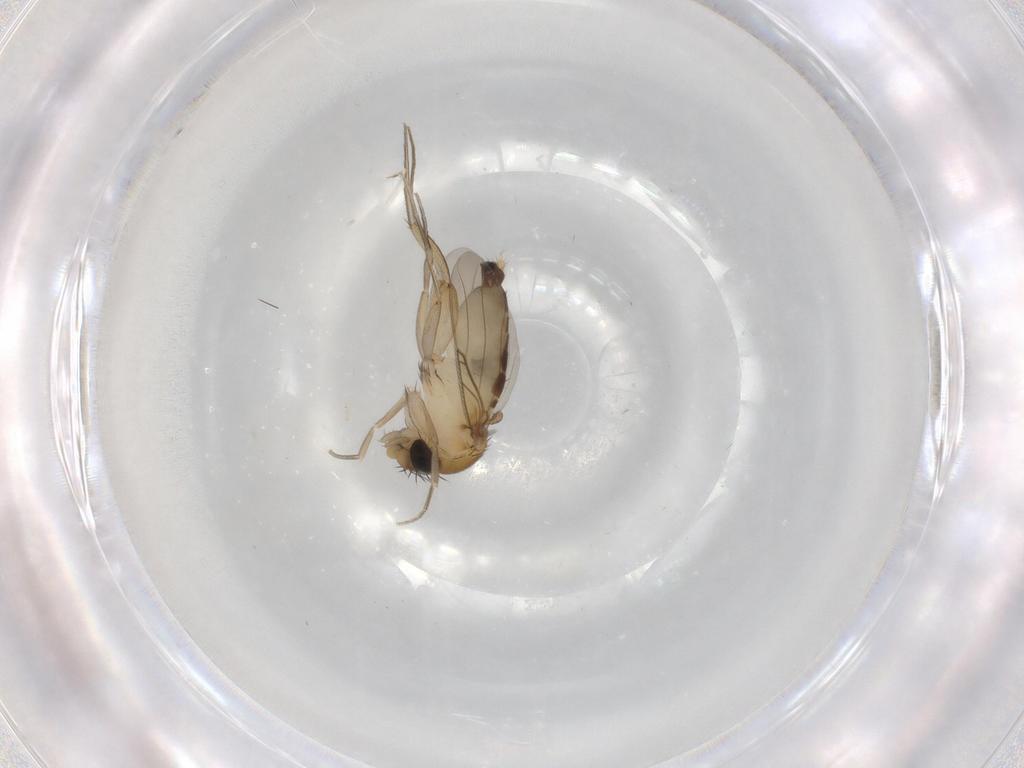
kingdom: Animalia
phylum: Arthropoda
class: Insecta
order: Diptera
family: Phoridae
